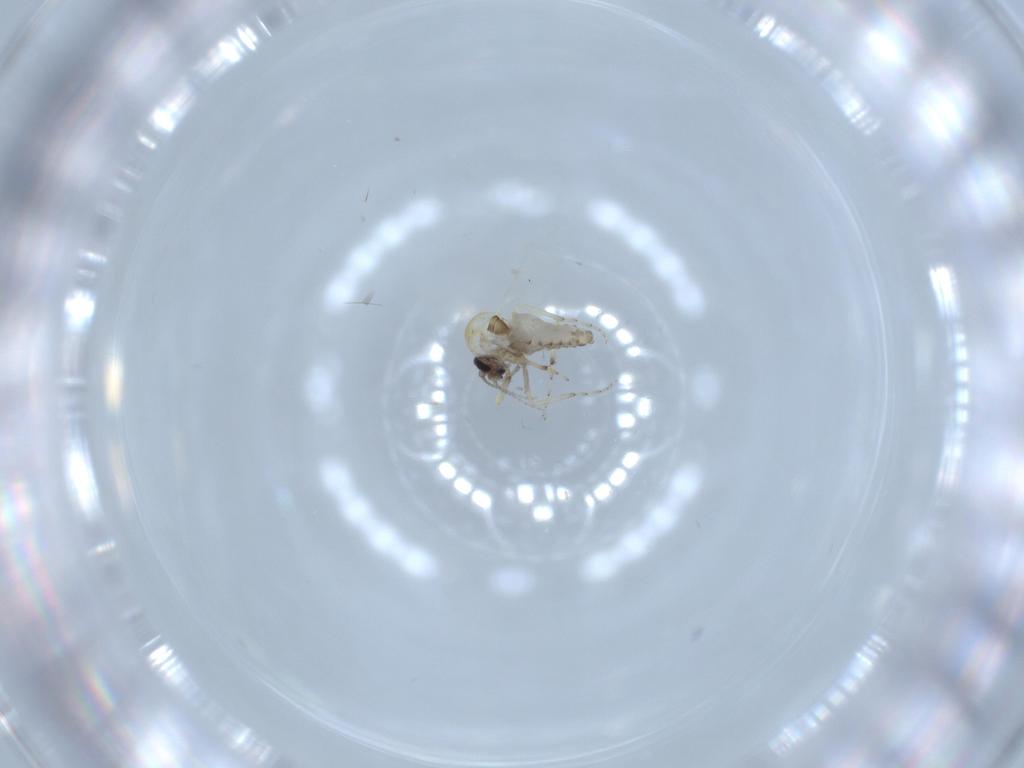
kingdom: Animalia
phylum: Arthropoda
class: Insecta
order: Diptera
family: Ceratopogonidae
